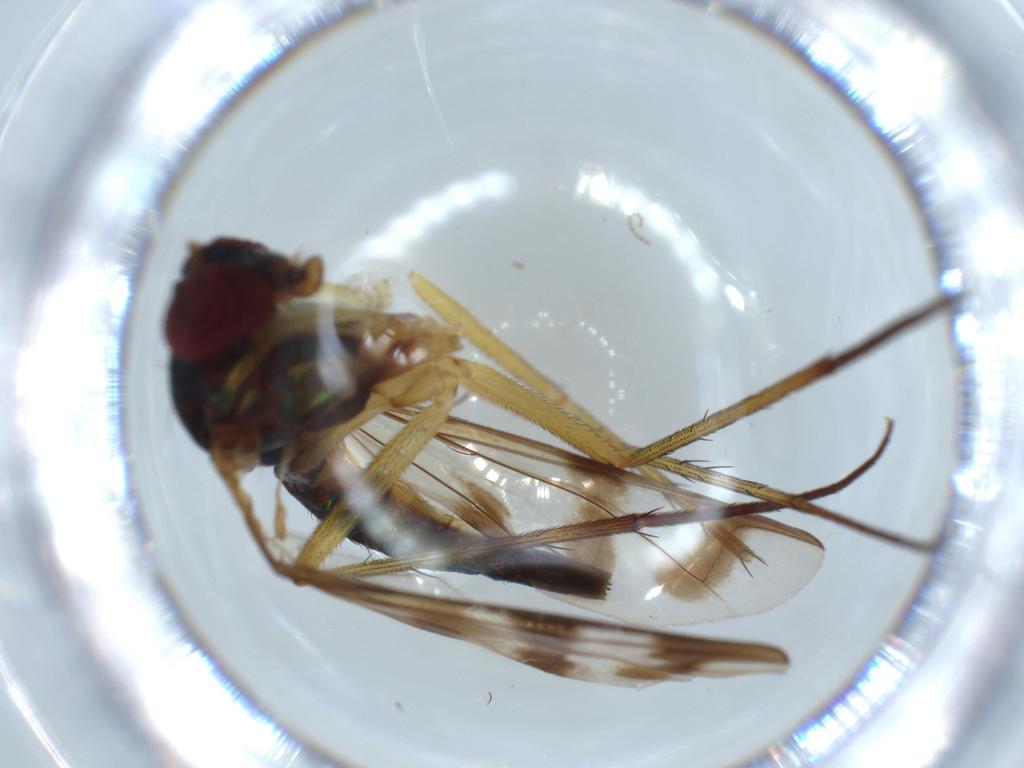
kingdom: Animalia
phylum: Arthropoda
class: Insecta
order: Diptera
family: Dolichopodidae
